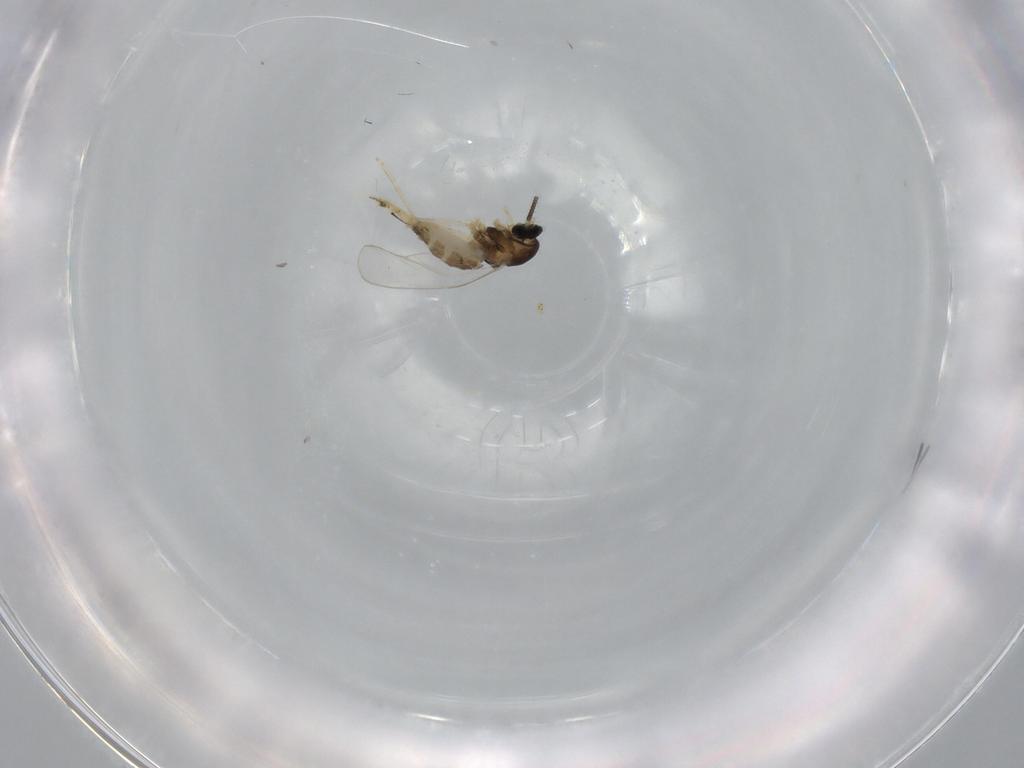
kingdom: Animalia
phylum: Arthropoda
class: Insecta
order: Diptera
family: Cecidomyiidae
